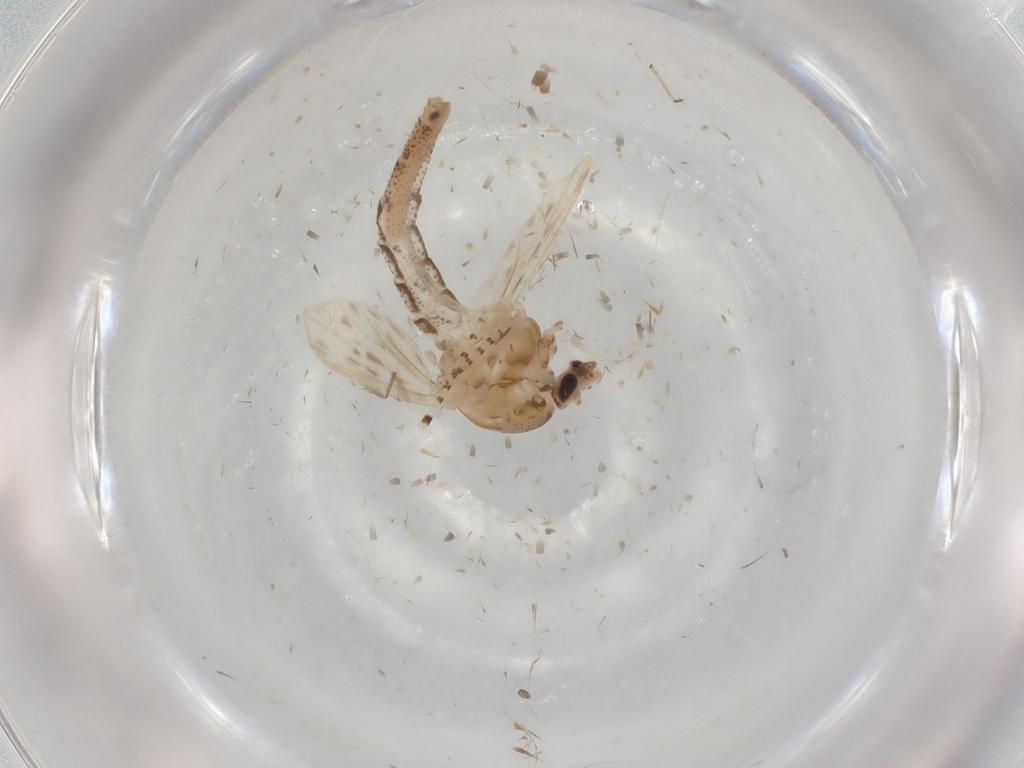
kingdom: Animalia
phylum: Arthropoda
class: Insecta
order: Diptera
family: Chaoboridae
